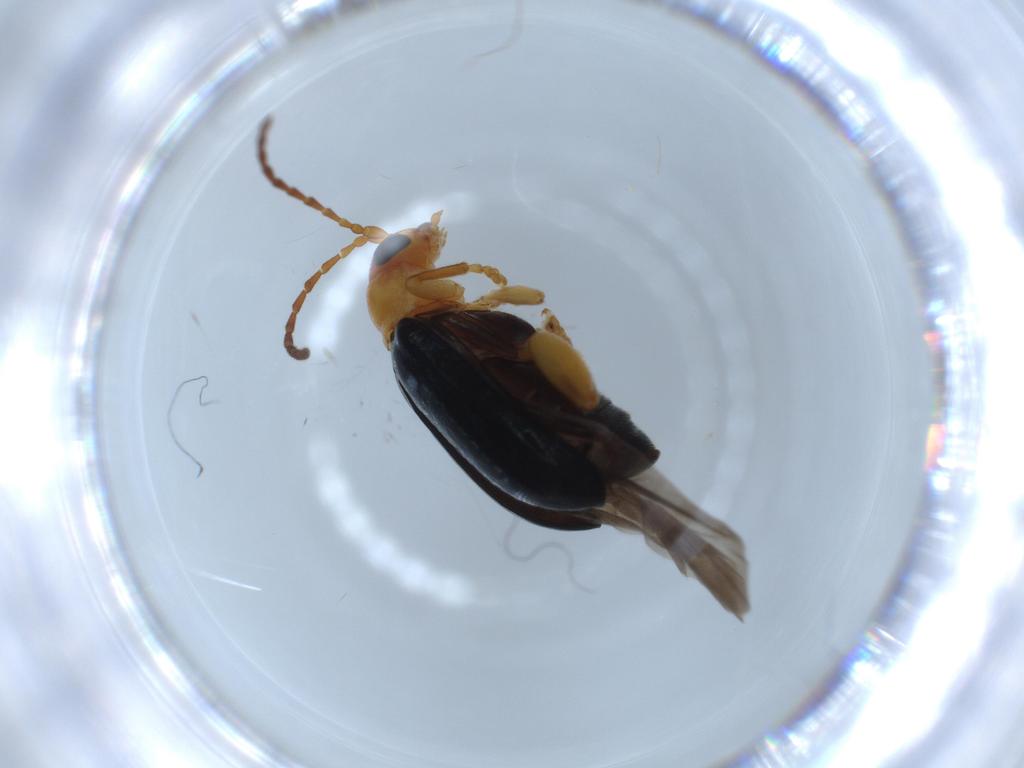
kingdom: Animalia
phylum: Arthropoda
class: Insecta
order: Coleoptera
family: Chrysomelidae
